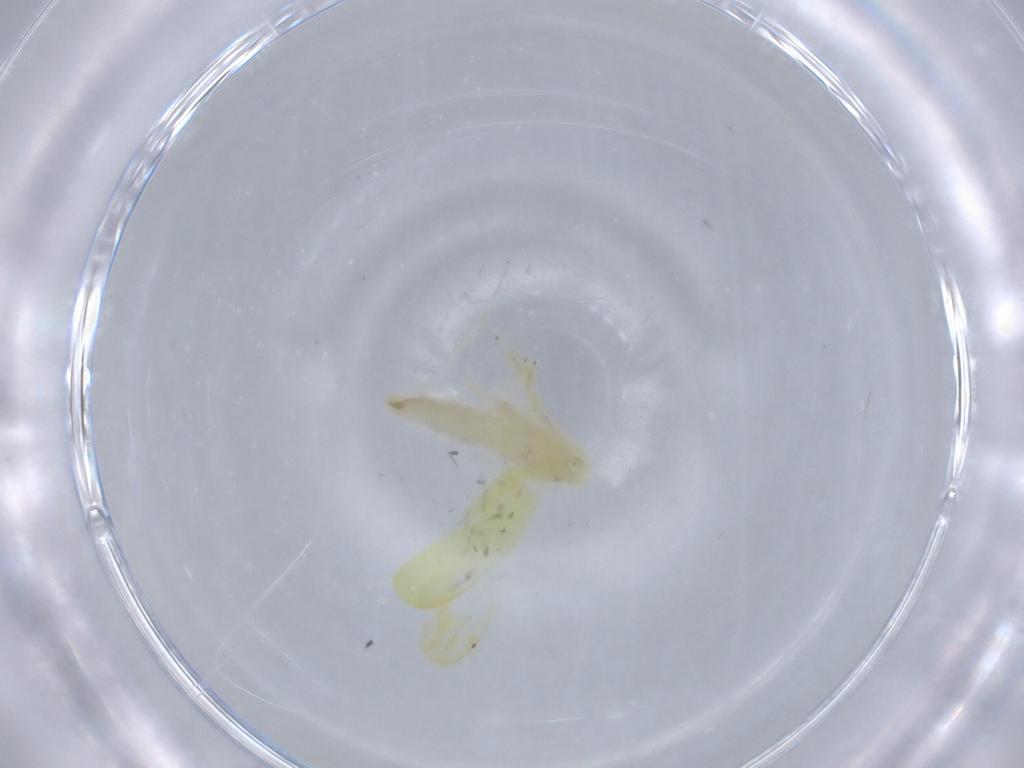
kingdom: Animalia
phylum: Arthropoda
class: Insecta
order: Hemiptera
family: Cicadellidae
